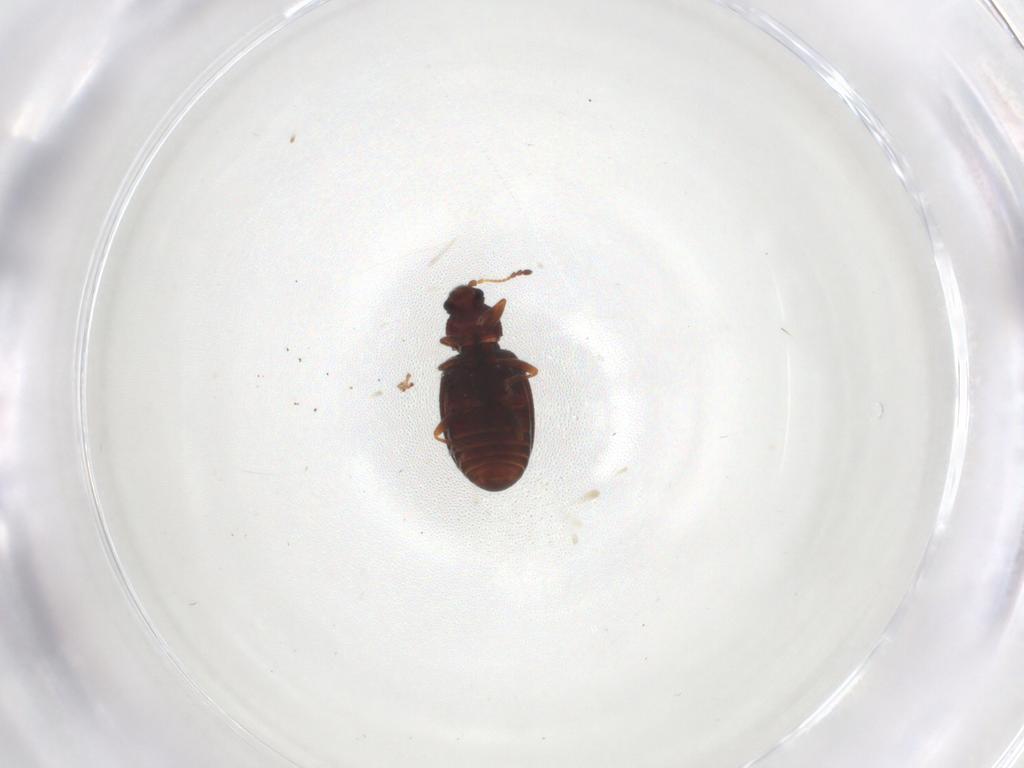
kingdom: Animalia
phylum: Arthropoda
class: Insecta
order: Coleoptera
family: Latridiidae
